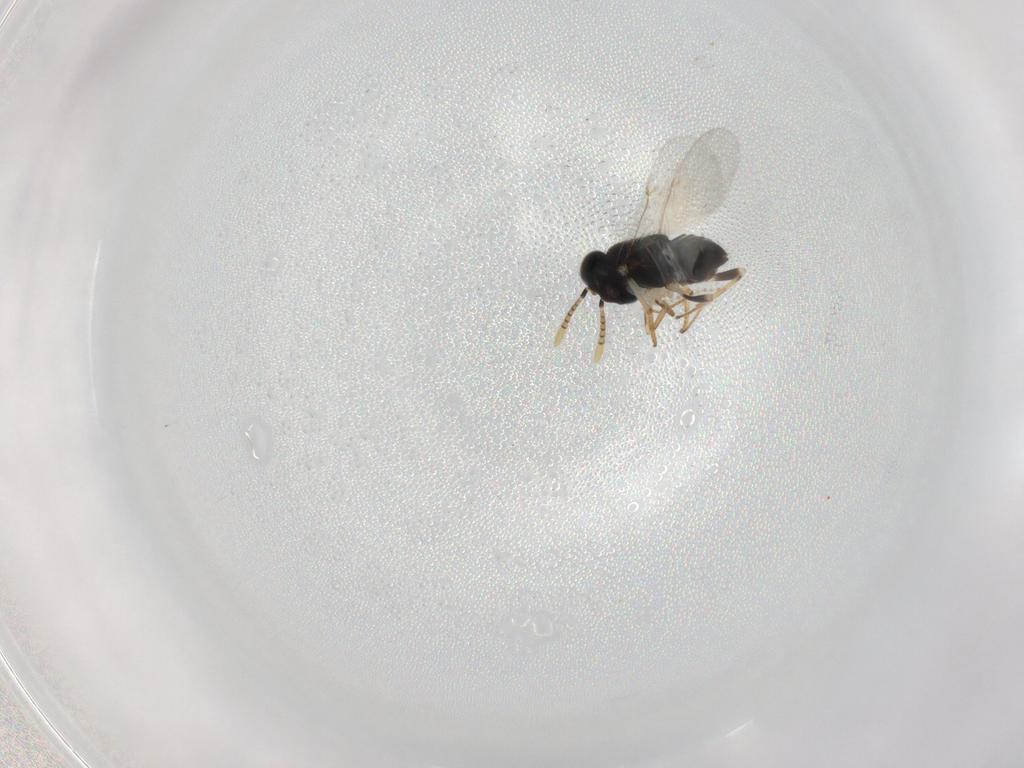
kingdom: Animalia
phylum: Arthropoda
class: Insecta
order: Hymenoptera
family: Encyrtidae
